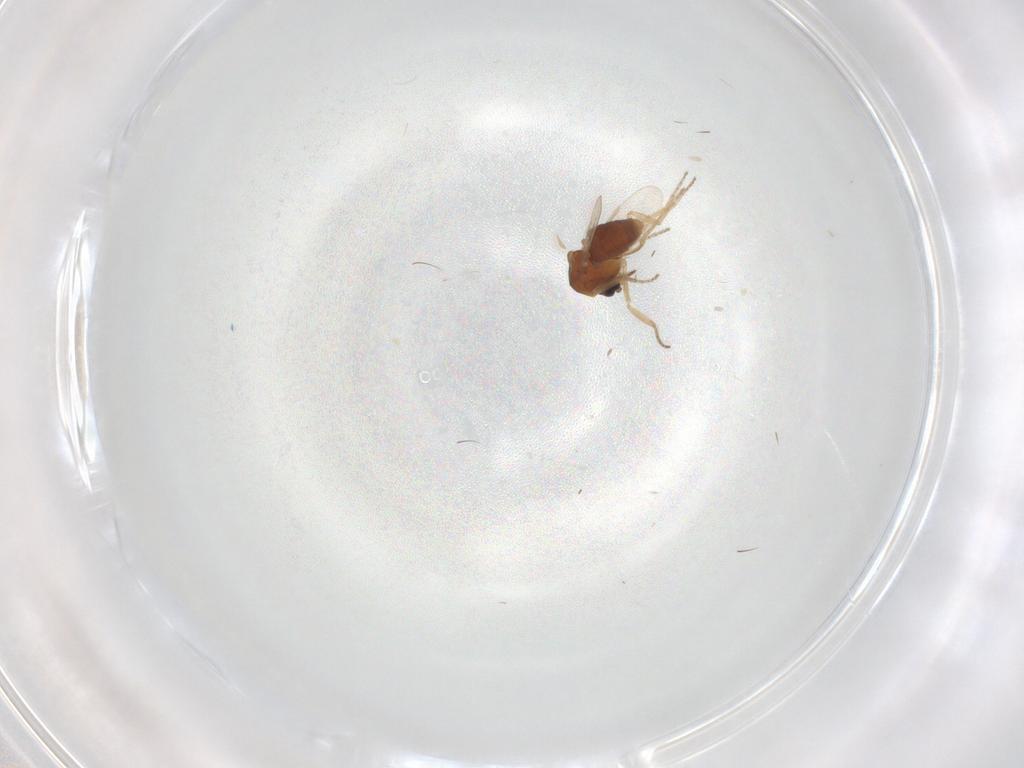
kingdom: Animalia
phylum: Arthropoda
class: Insecta
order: Diptera
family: Ceratopogonidae
